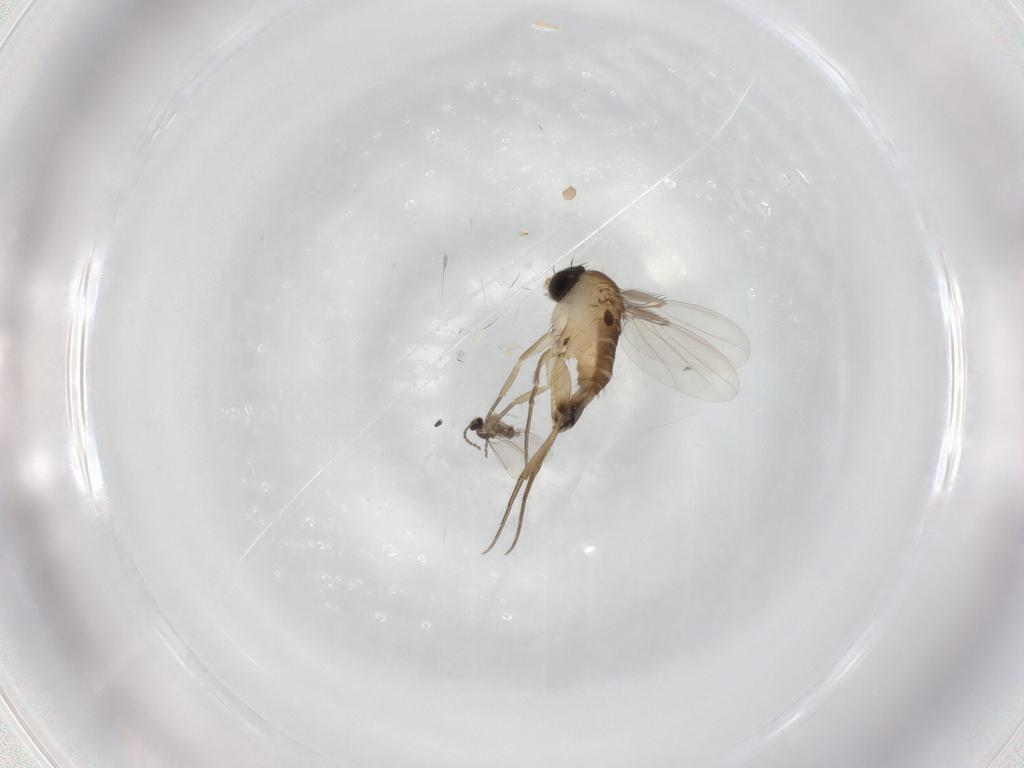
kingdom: Animalia
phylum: Arthropoda
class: Insecta
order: Diptera
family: Phoridae
